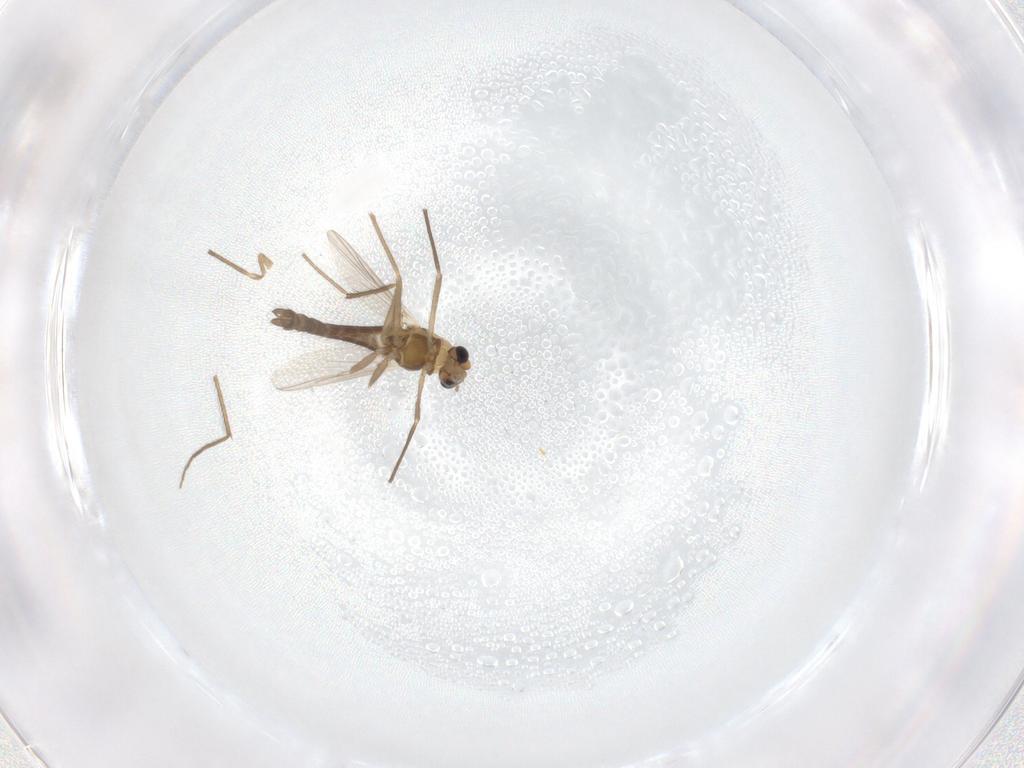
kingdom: Animalia
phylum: Arthropoda
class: Insecta
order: Diptera
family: Chironomidae
